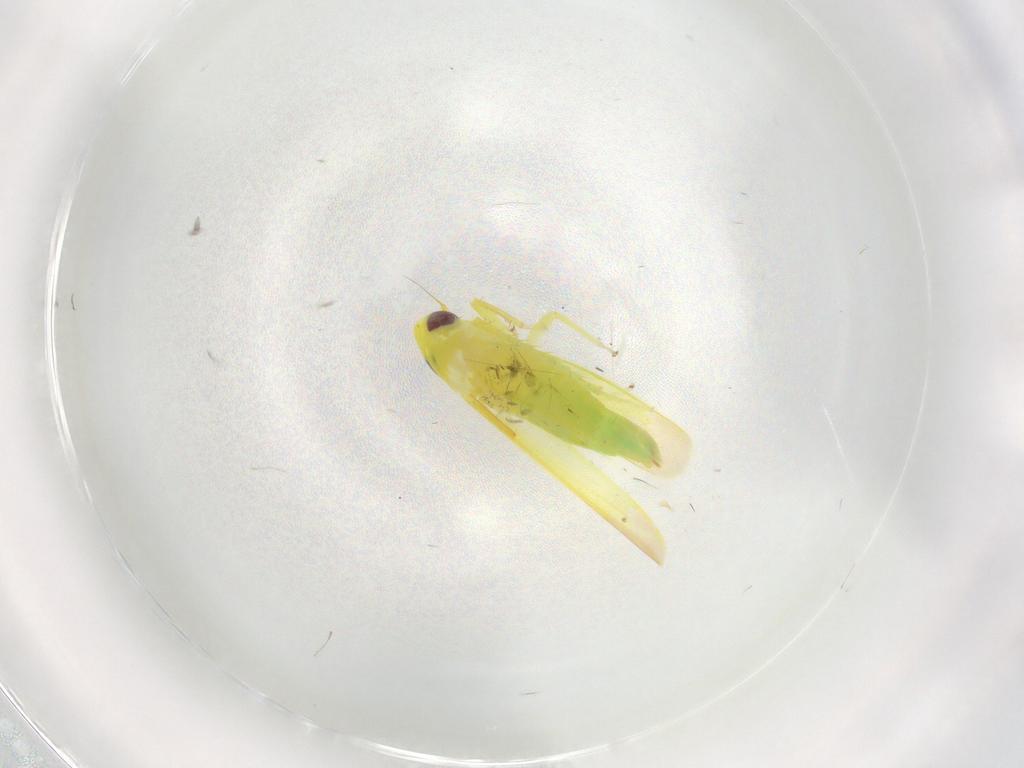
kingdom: Animalia
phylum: Arthropoda
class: Insecta
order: Hemiptera
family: Cicadellidae
